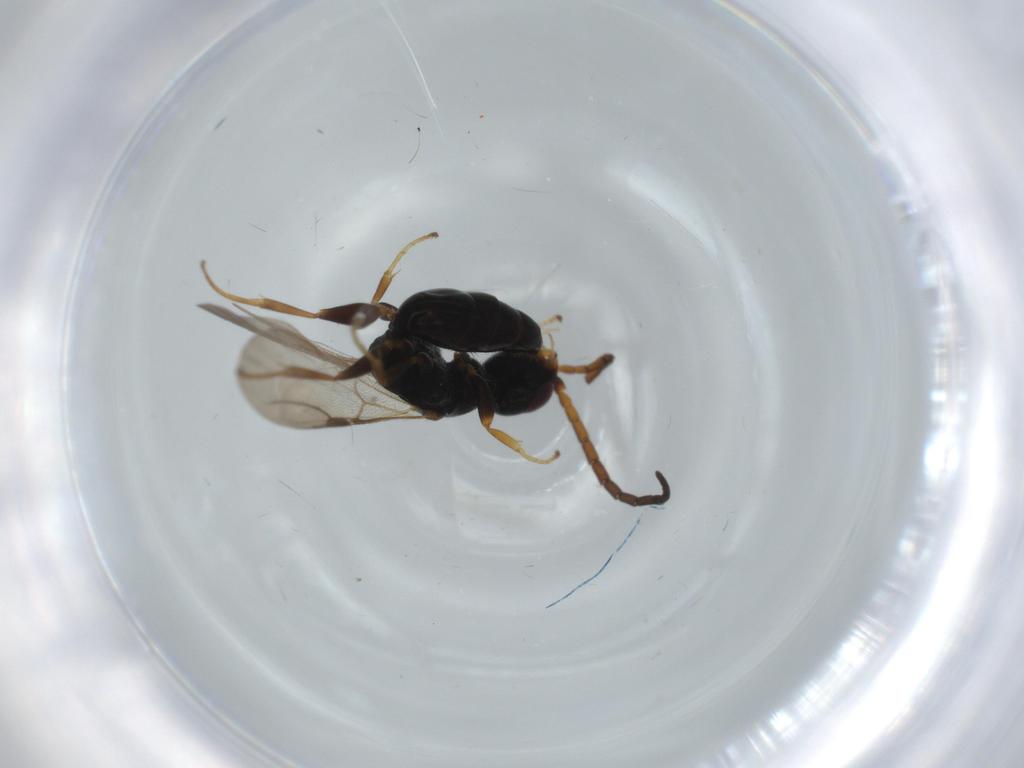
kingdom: Animalia
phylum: Arthropoda
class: Insecta
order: Hymenoptera
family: Bethylidae
